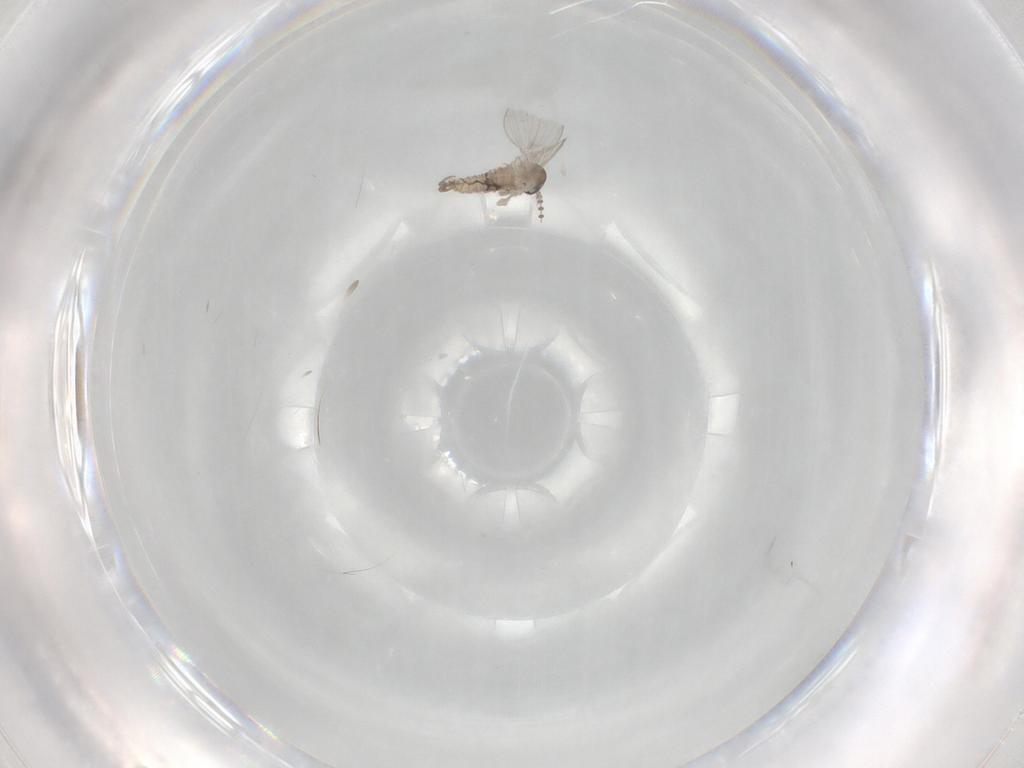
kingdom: Animalia
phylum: Arthropoda
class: Insecta
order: Diptera
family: Psychodidae
